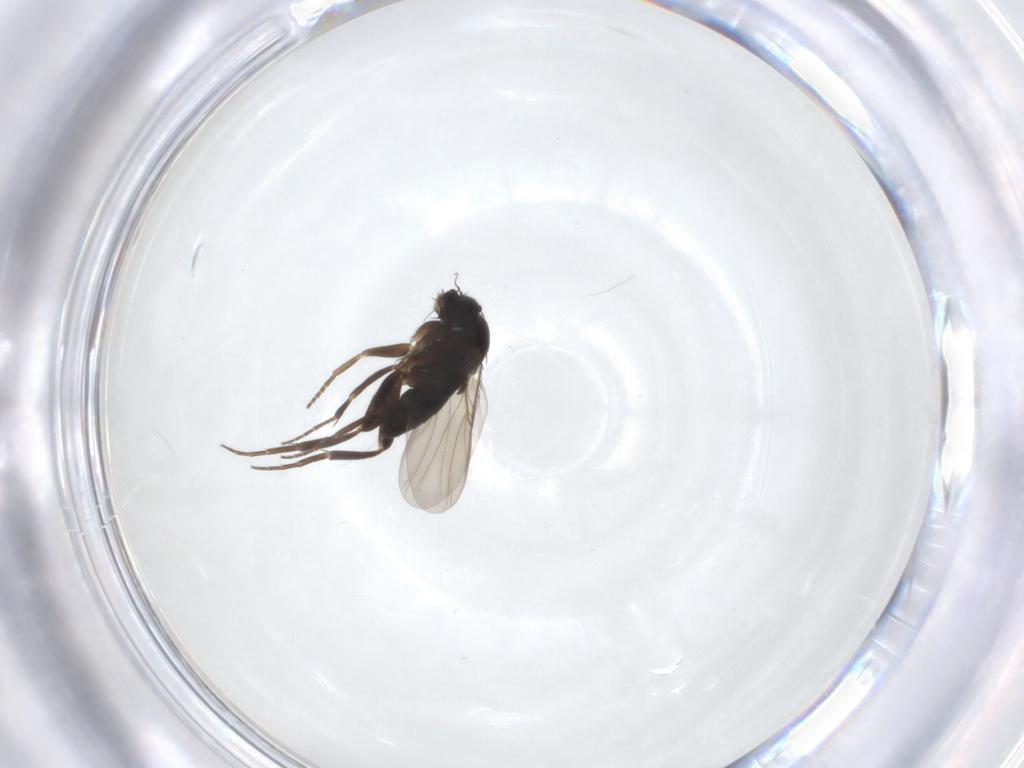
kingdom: Animalia
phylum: Arthropoda
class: Insecta
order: Diptera
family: Phoridae
